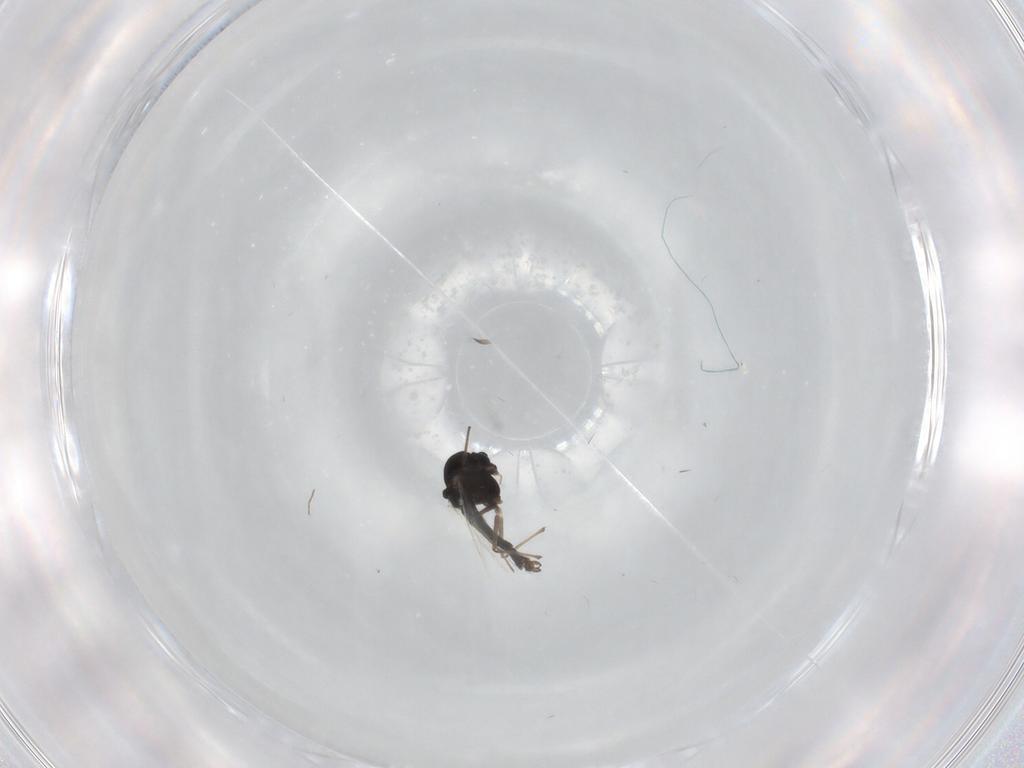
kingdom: Animalia
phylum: Arthropoda
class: Insecta
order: Diptera
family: Chironomidae
